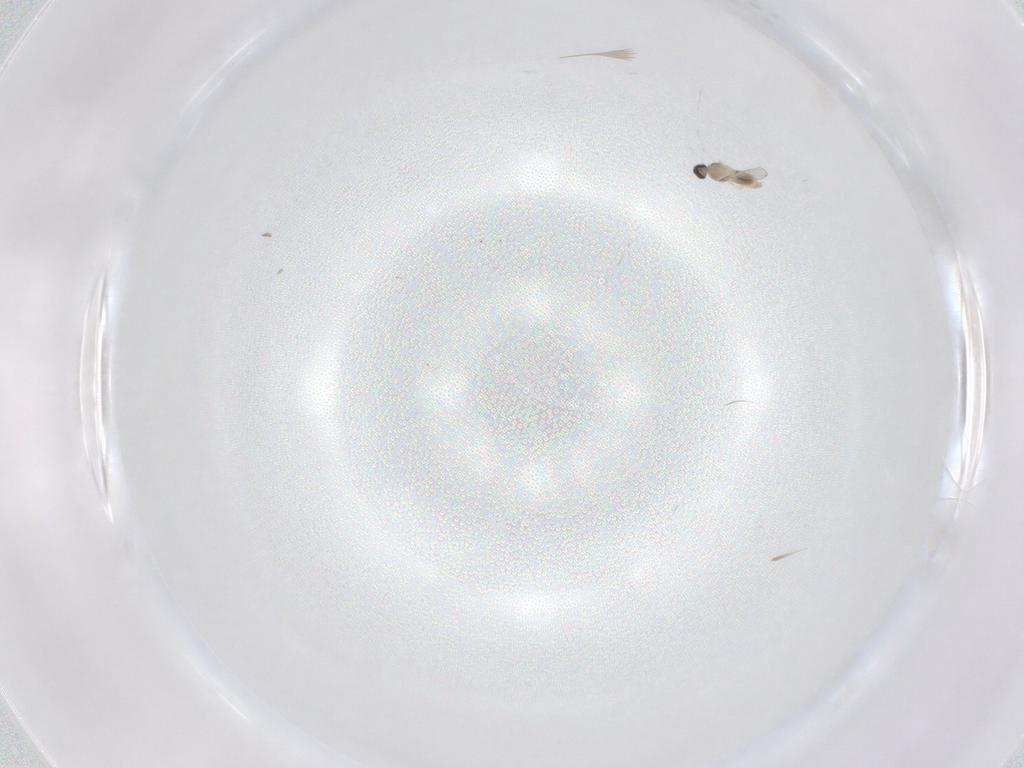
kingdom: Animalia
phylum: Arthropoda
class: Insecta
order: Diptera
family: Cecidomyiidae
